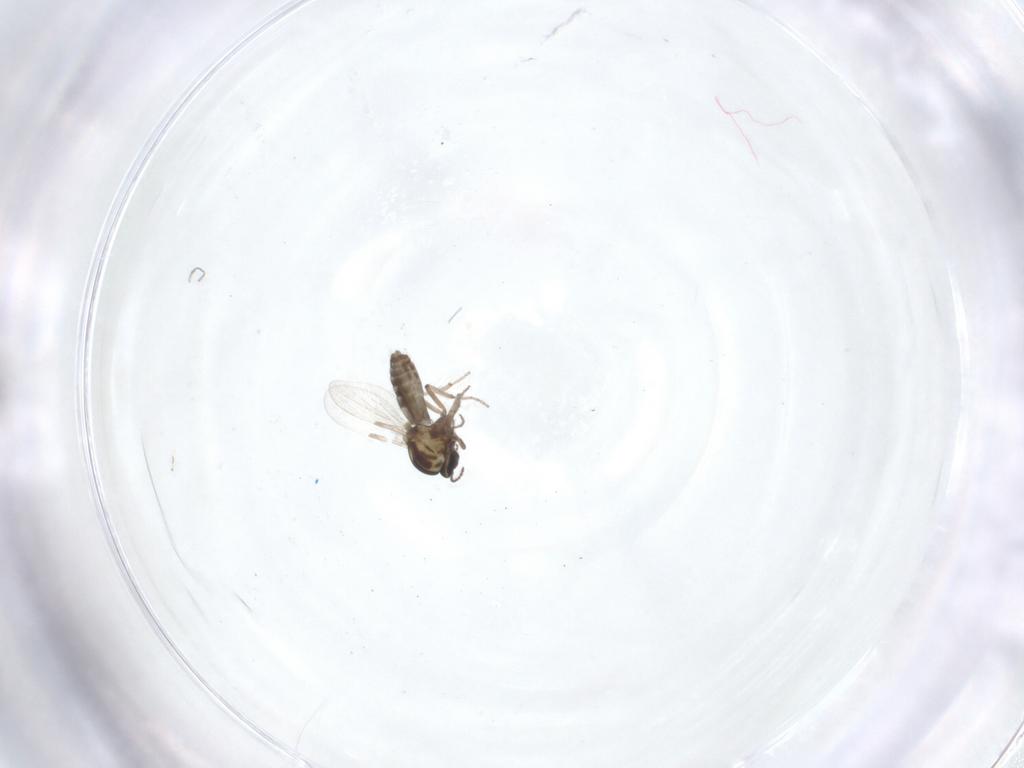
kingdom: Animalia
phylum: Arthropoda
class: Insecta
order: Diptera
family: Ceratopogonidae
